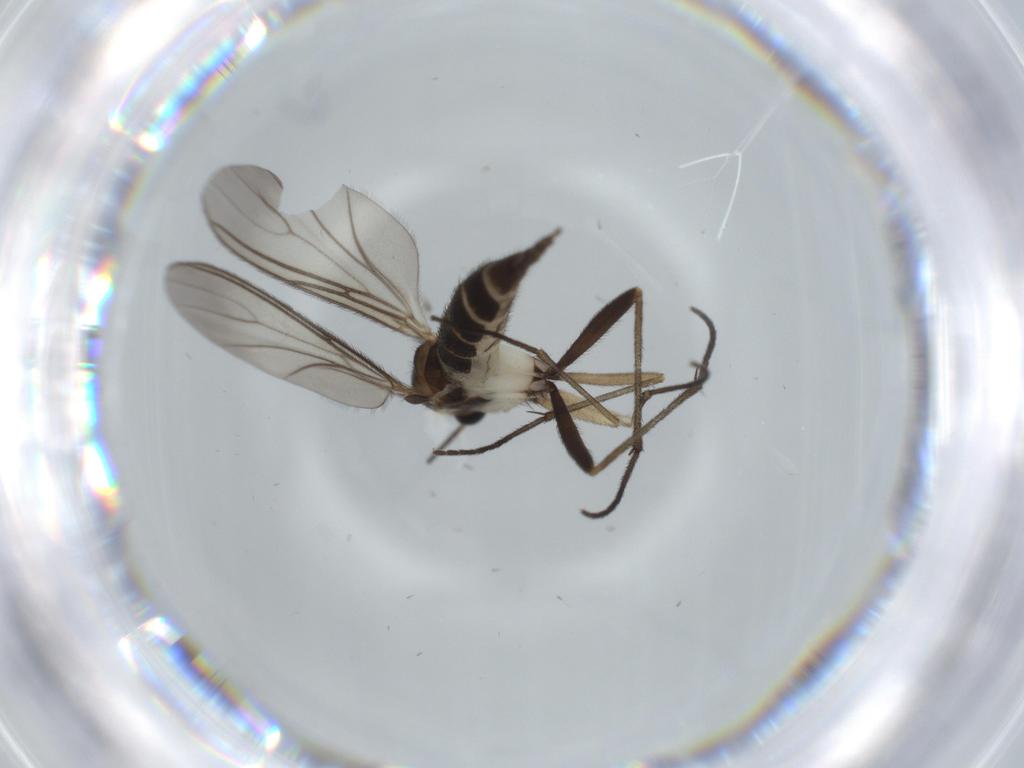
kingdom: Animalia
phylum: Arthropoda
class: Insecta
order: Diptera
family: Sciaridae
